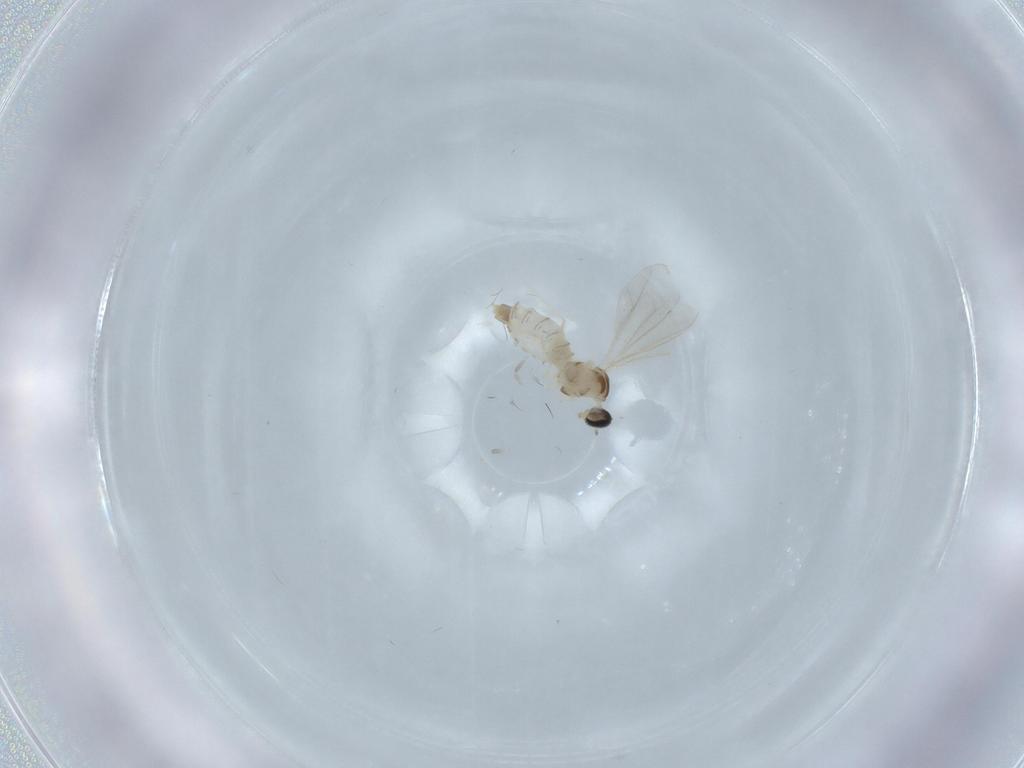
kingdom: Animalia
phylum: Arthropoda
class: Insecta
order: Diptera
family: Cecidomyiidae
